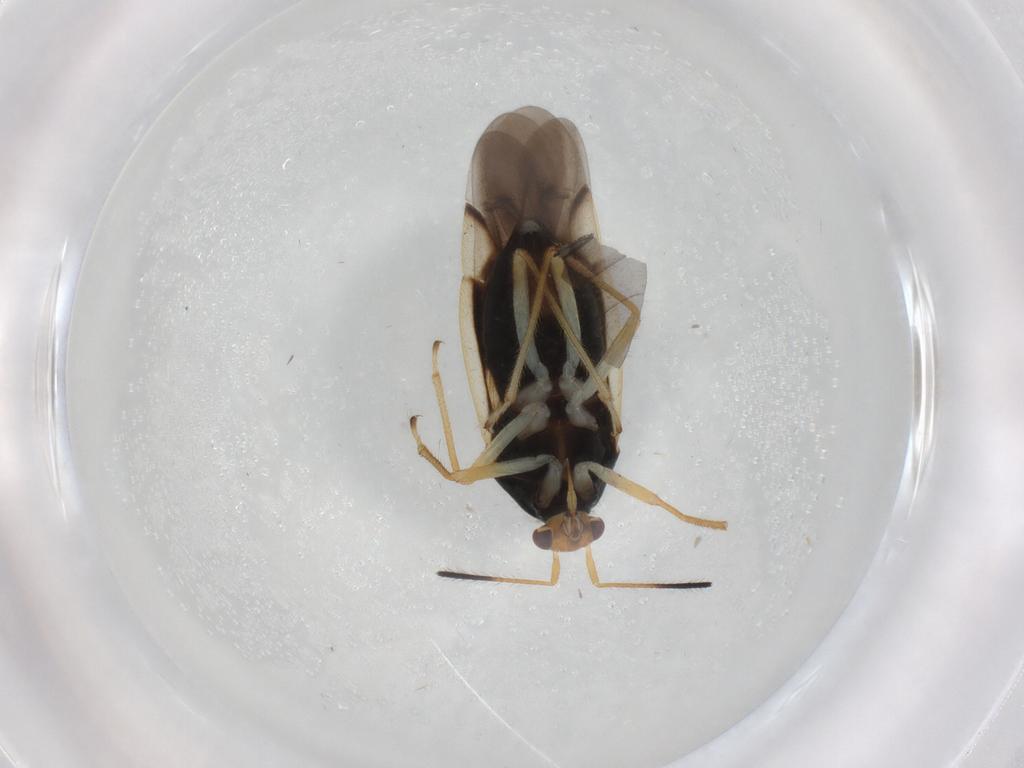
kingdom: Animalia
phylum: Arthropoda
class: Insecta
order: Hemiptera
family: Miridae
